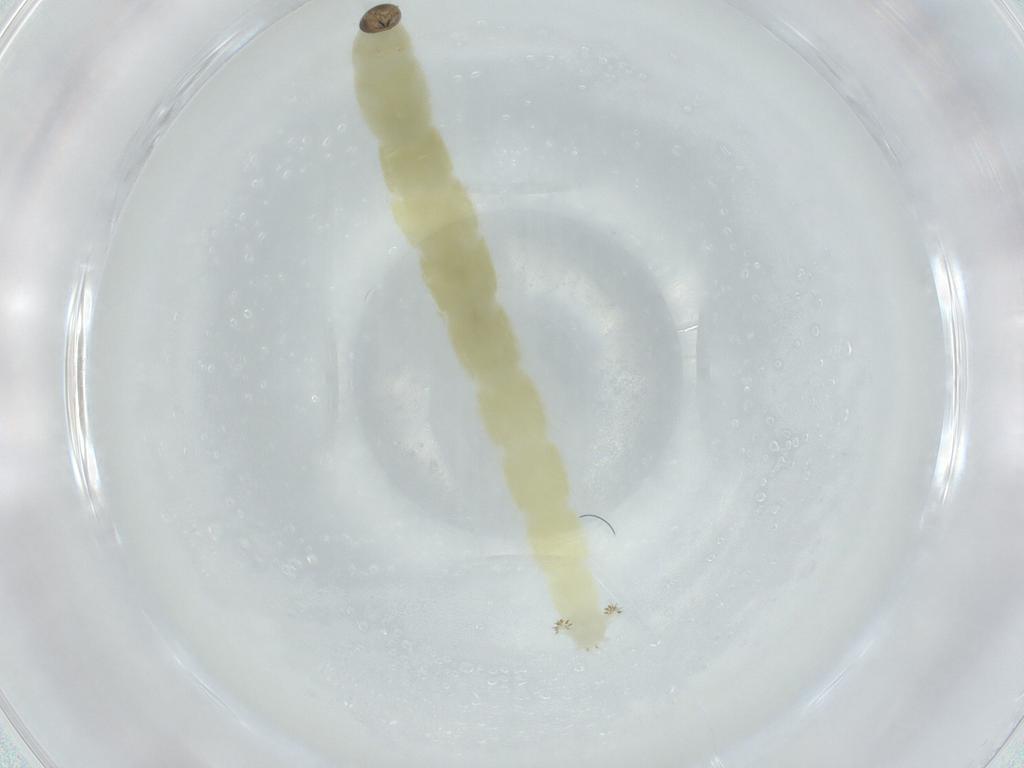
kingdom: Animalia
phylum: Arthropoda
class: Insecta
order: Diptera
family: Chironomidae
